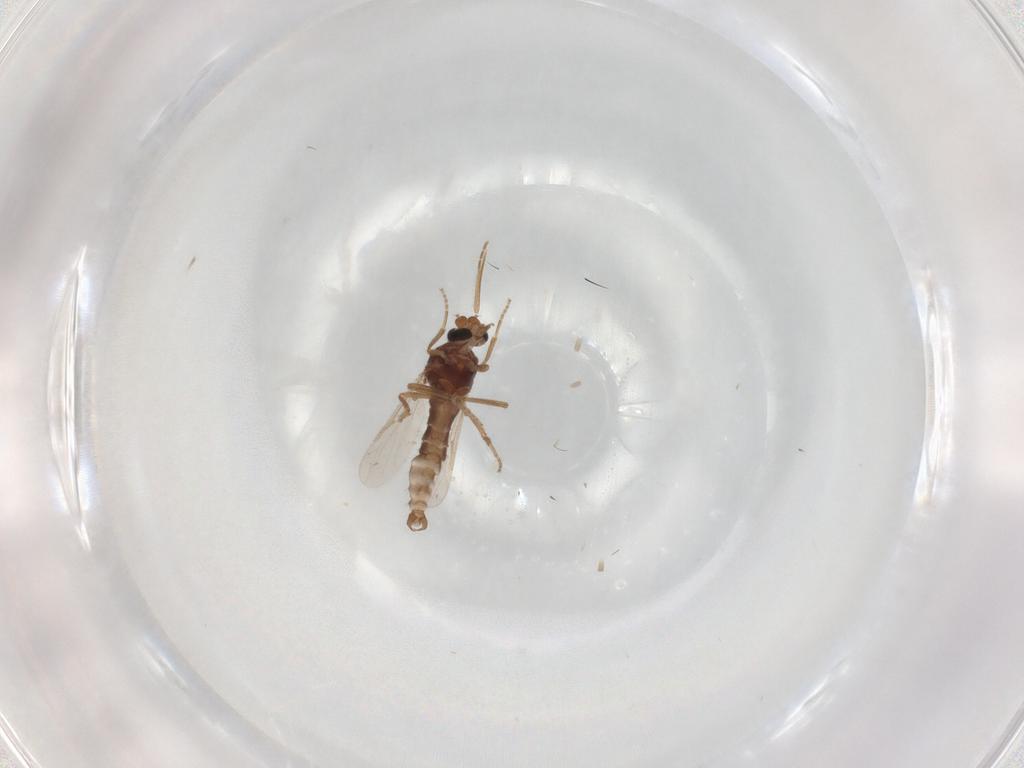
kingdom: Animalia
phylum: Arthropoda
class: Insecta
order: Diptera
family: Ceratopogonidae
